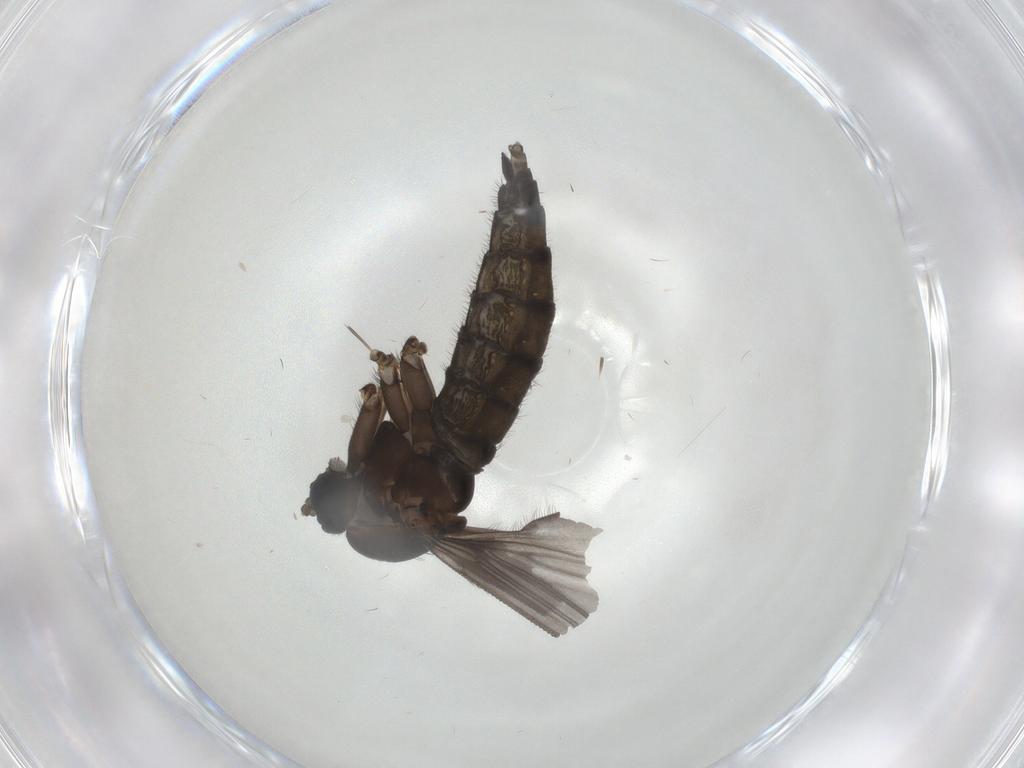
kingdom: Animalia
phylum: Arthropoda
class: Insecta
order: Diptera
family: Sciaridae
